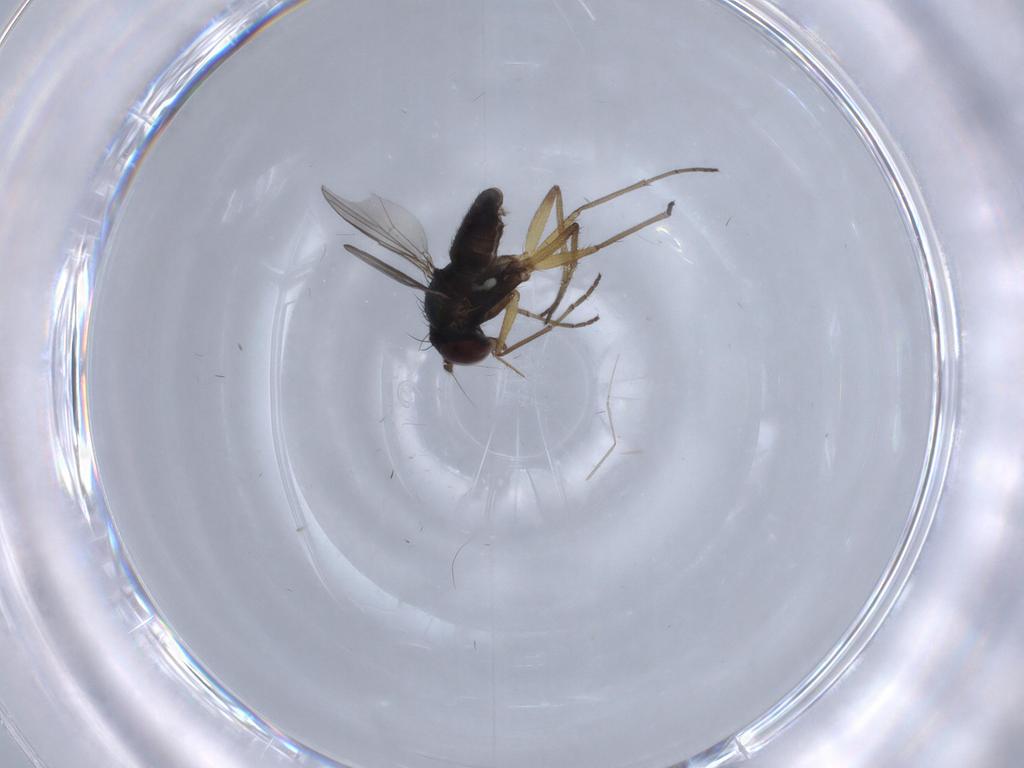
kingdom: Animalia
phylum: Arthropoda
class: Insecta
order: Diptera
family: Dolichopodidae
